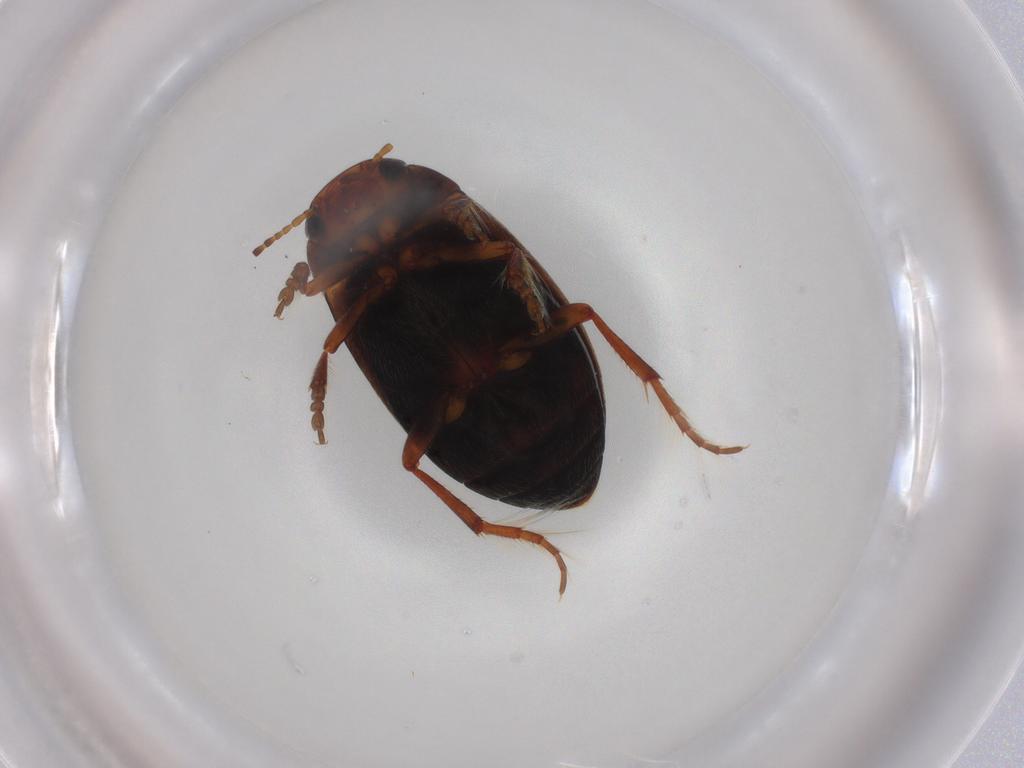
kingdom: Animalia
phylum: Arthropoda
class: Insecta
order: Coleoptera
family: Dytiscidae
